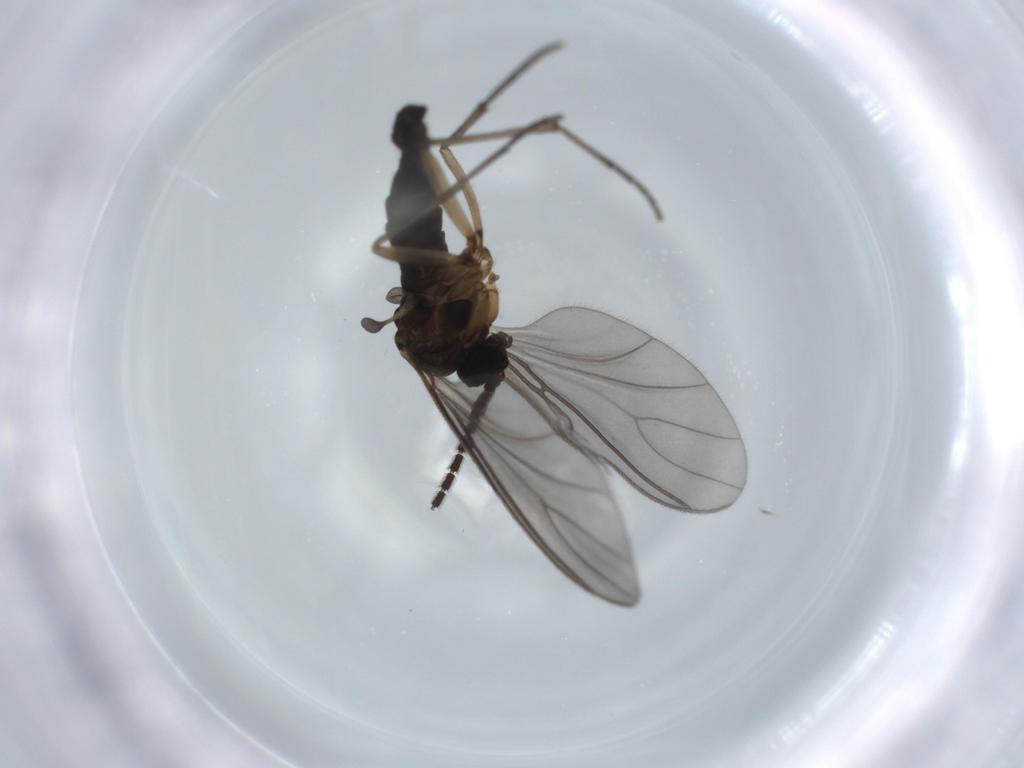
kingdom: Animalia
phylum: Arthropoda
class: Insecta
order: Diptera
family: Sciaridae
